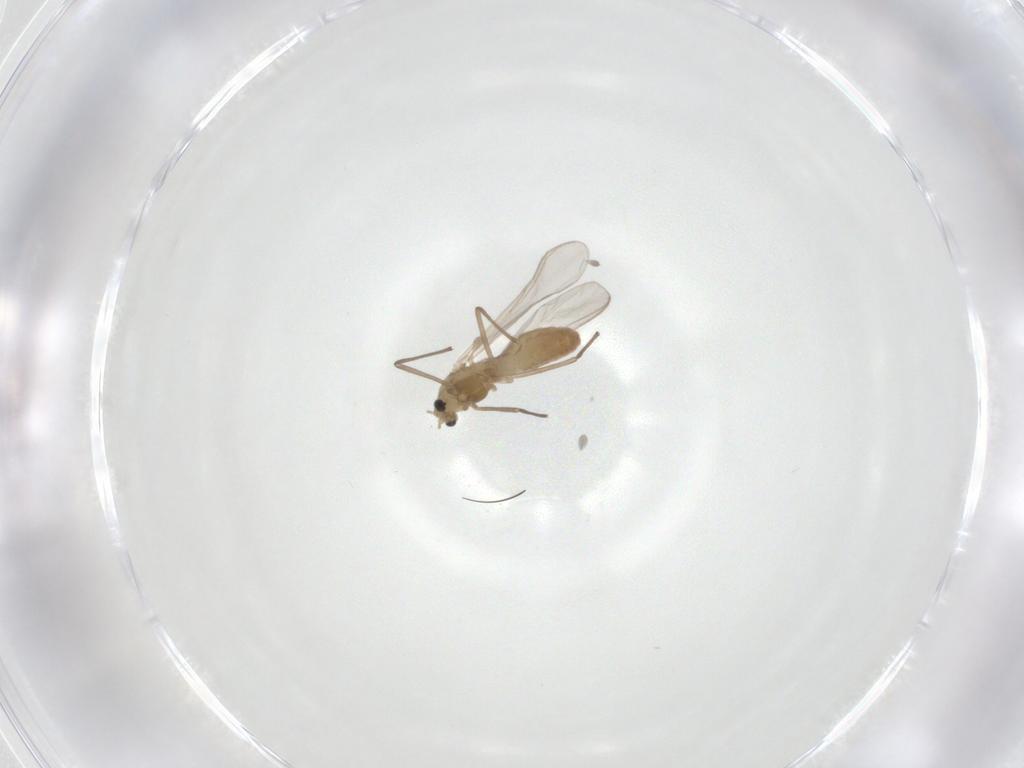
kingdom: Animalia
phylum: Arthropoda
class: Insecta
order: Diptera
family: Chironomidae
